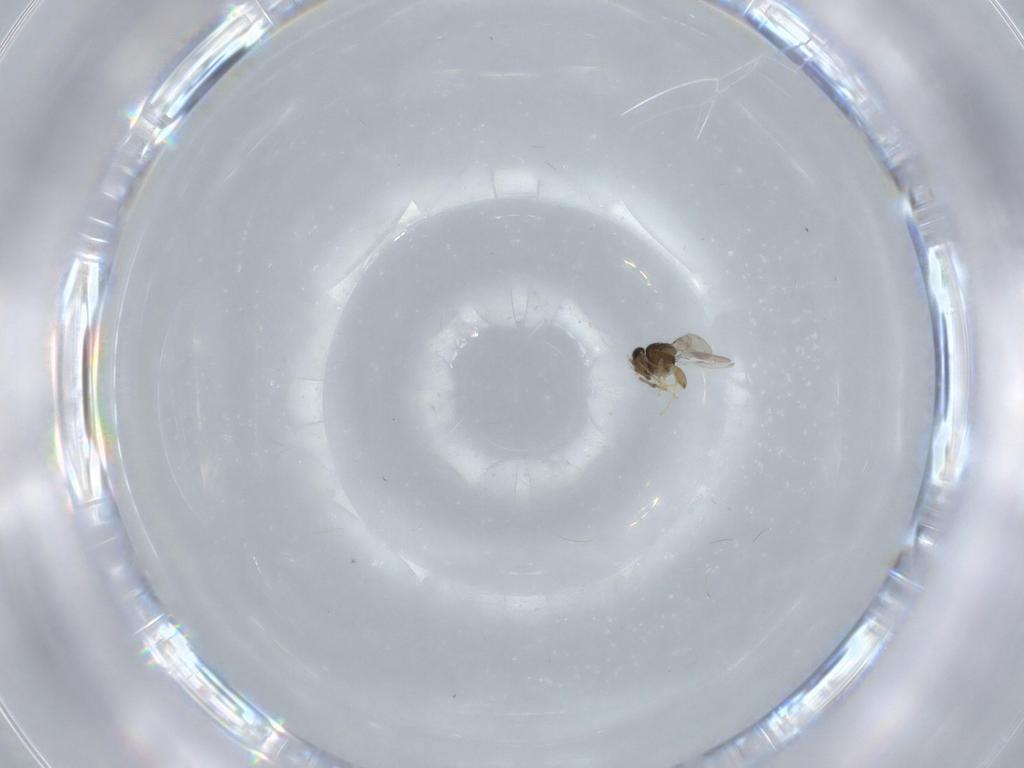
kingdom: Animalia
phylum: Arthropoda
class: Insecta
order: Hymenoptera
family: Scelionidae
